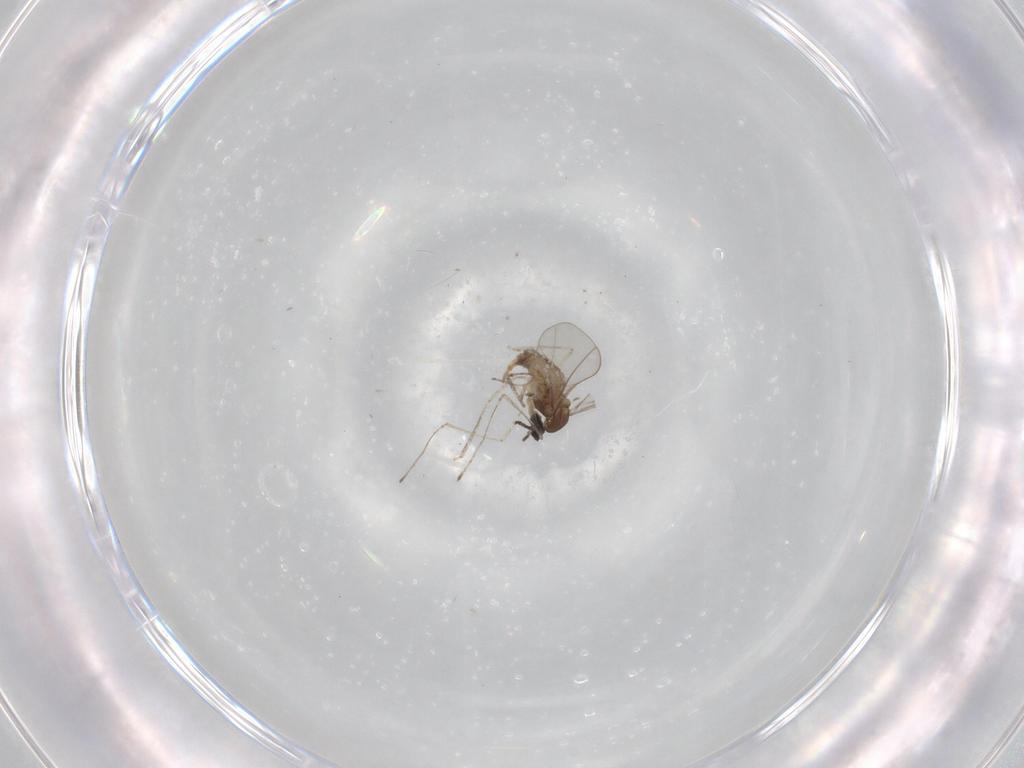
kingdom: Animalia
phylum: Arthropoda
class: Insecta
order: Diptera
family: Cecidomyiidae
